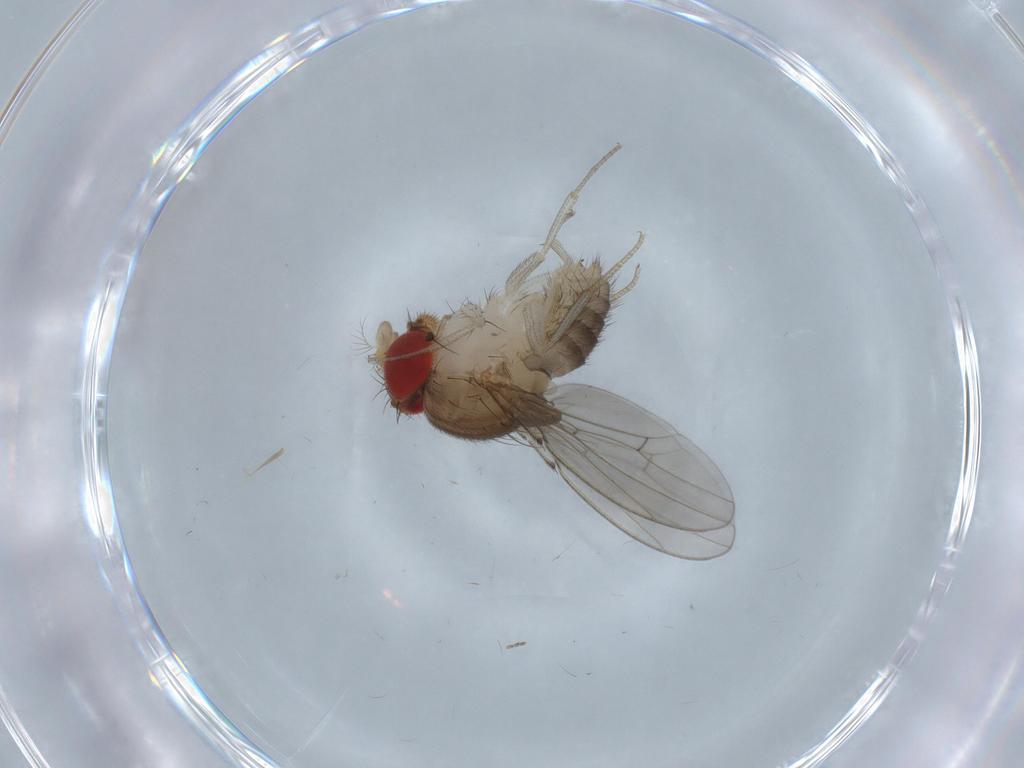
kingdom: Animalia
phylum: Arthropoda
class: Insecta
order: Diptera
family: Drosophilidae
